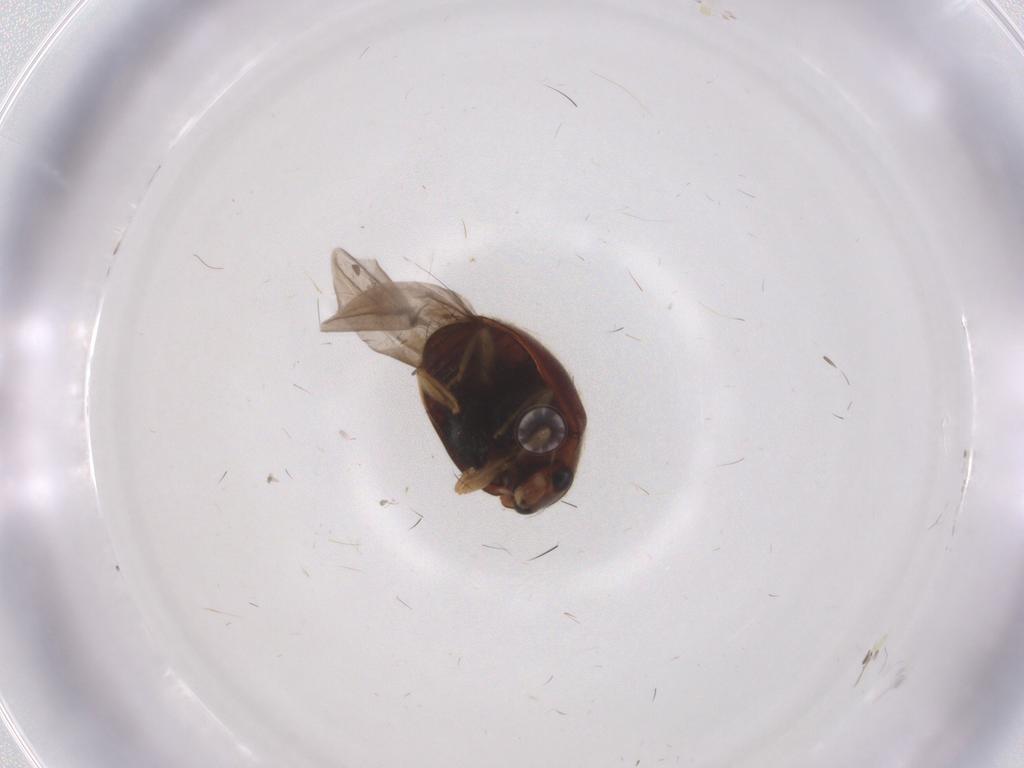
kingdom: Animalia
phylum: Arthropoda
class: Insecta
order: Coleoptera
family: Coccinellidae
